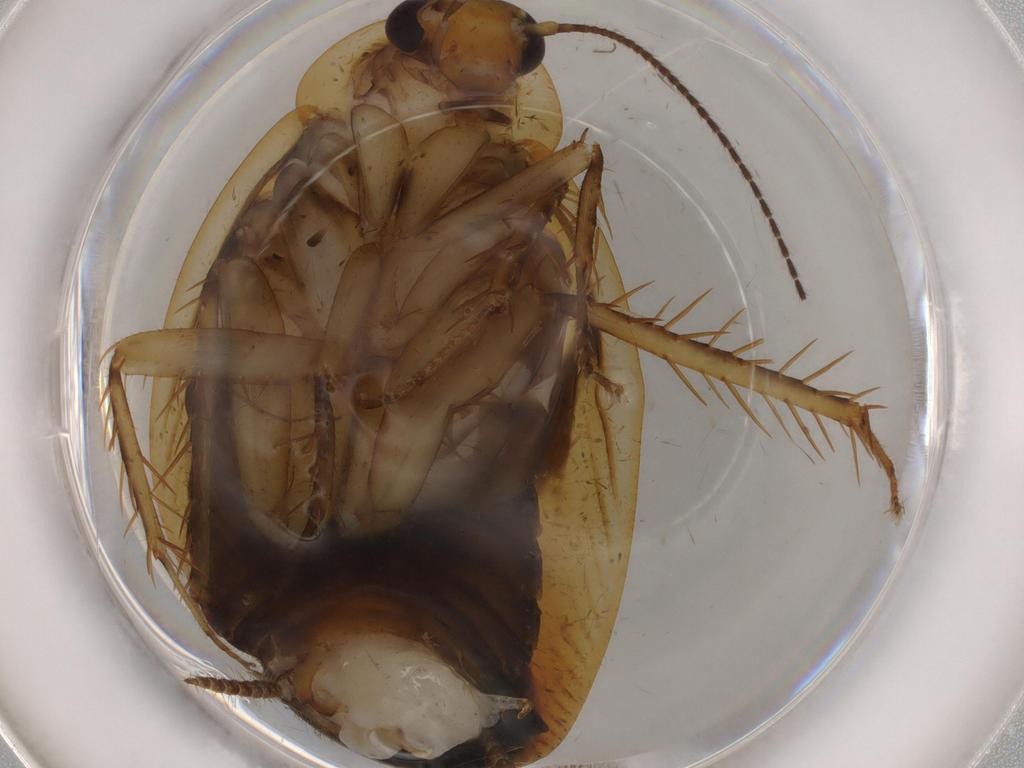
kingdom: Animalia
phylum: Arthropoda
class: Insecta
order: Blattodea
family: Ectobiidae
